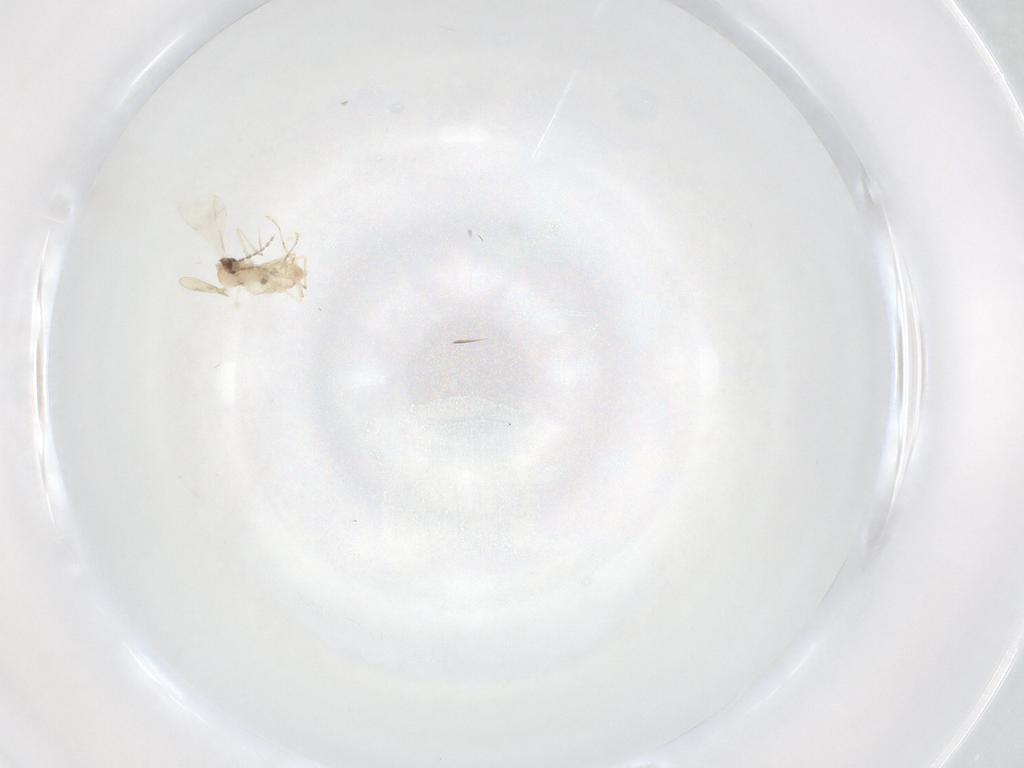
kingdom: Animalia
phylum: Arthropoda
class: Insecta
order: Diptera
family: Cecidomyiidae
